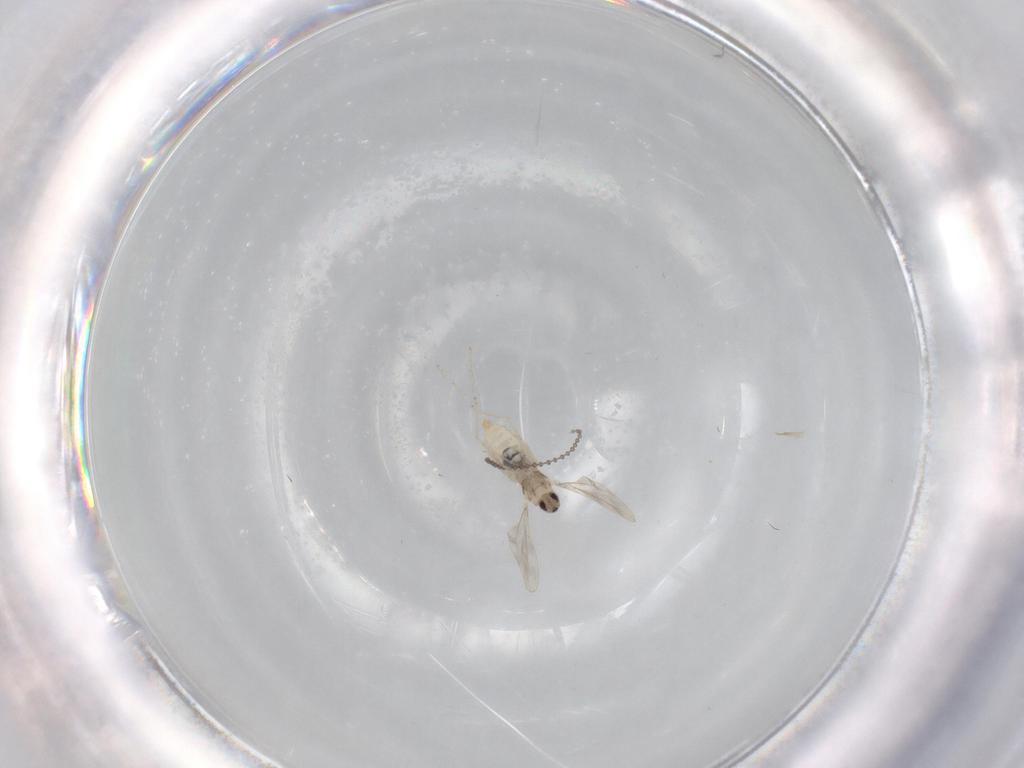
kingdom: Animalia
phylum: Arthropoda
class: Insecta
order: Diptera
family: Cecidomyiidae
